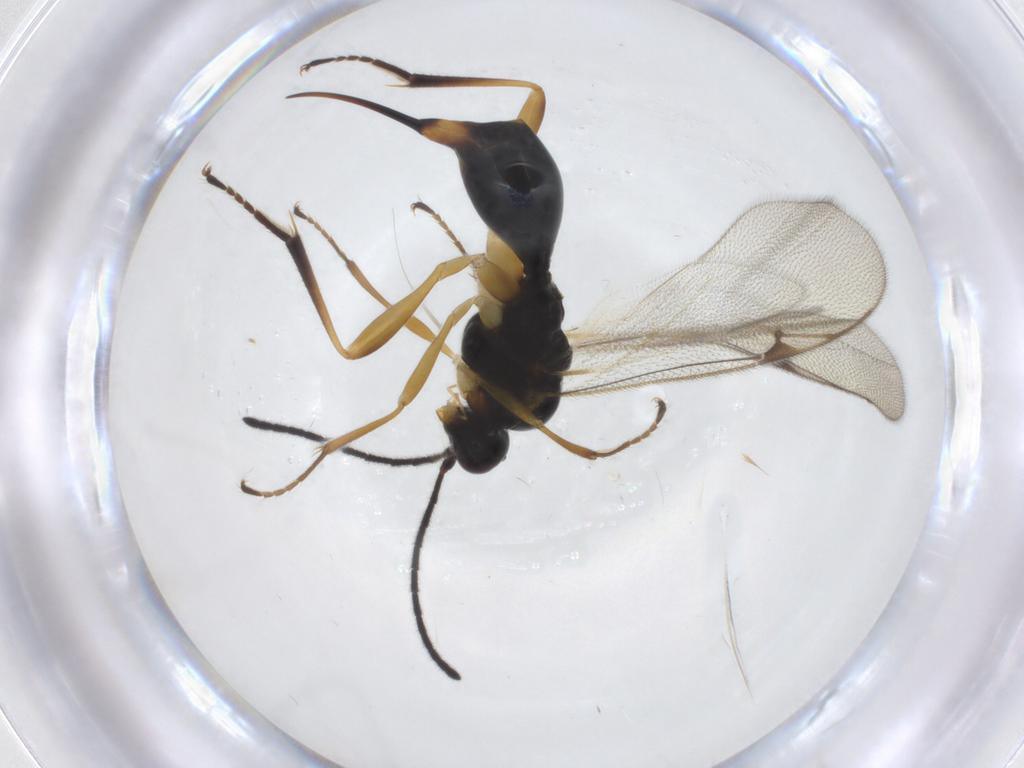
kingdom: Animalia
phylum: Arthropoda
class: Insecta
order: Hymenoptera
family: Proctotrupidae
